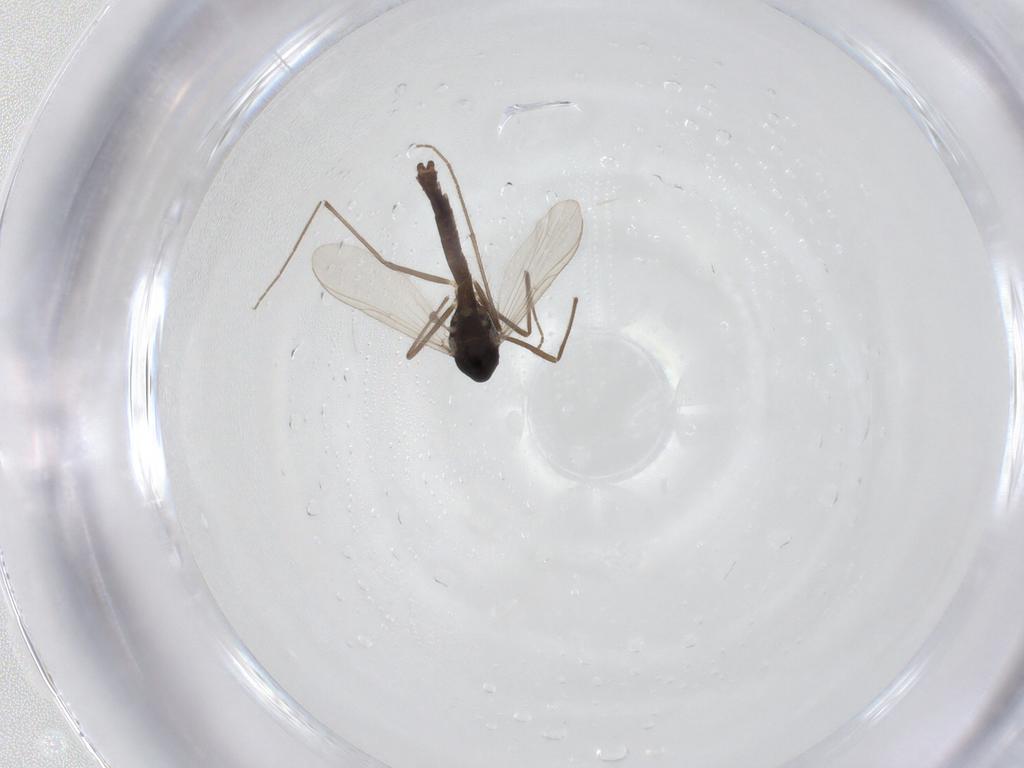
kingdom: Animalia
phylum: Arthropoda
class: Insecta
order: Diptera
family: Chironomidae
